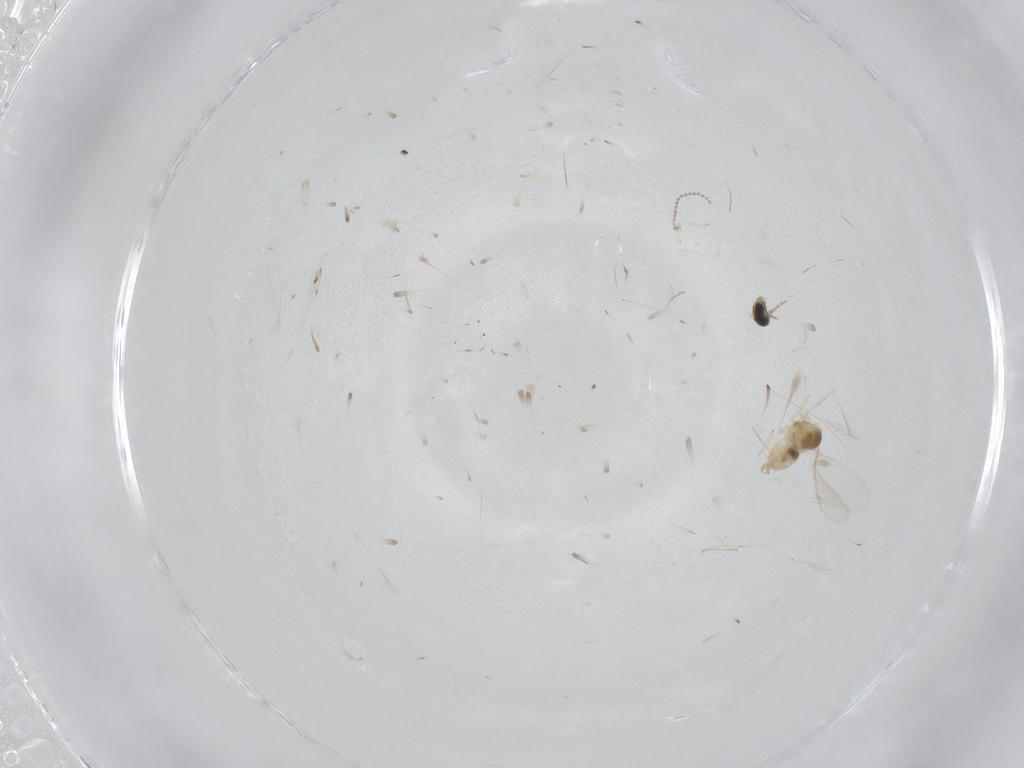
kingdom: Animalia
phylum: Arthropoda
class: Insecta
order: Diptera
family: Cecidomyiidae
